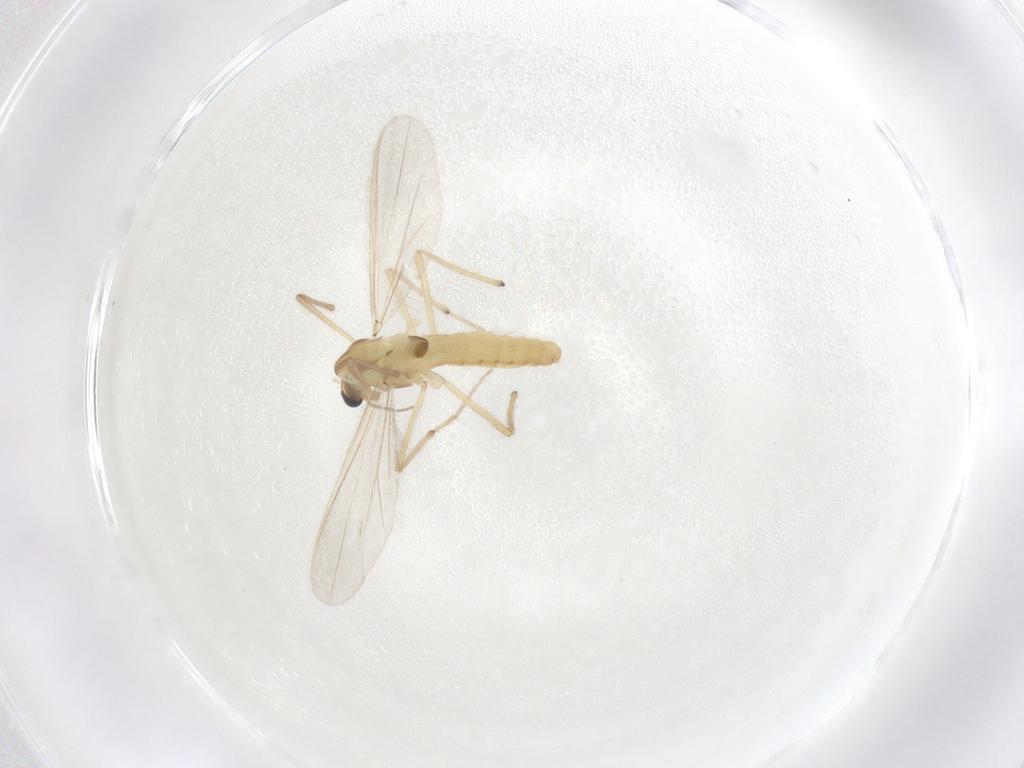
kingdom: Animalia
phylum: Arthropoda
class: Insecta
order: Diptera
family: Chironomidae
